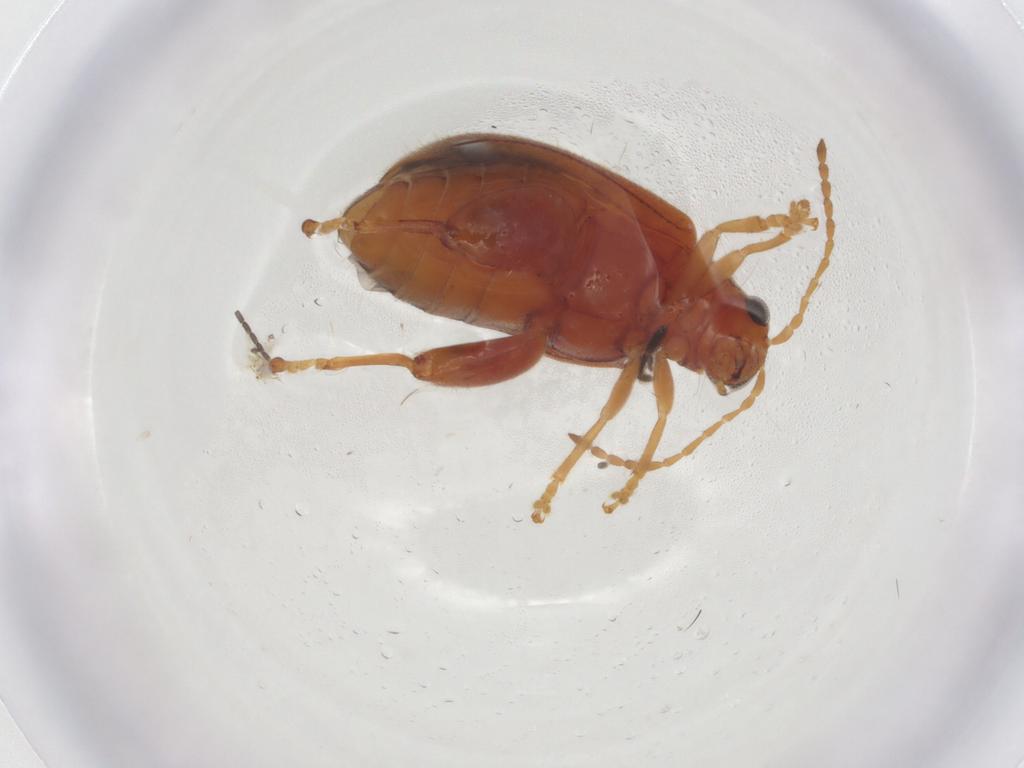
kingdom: Animalia
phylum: Arthropoda
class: Insecta
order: Coleoptera
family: Chrysomelidae
